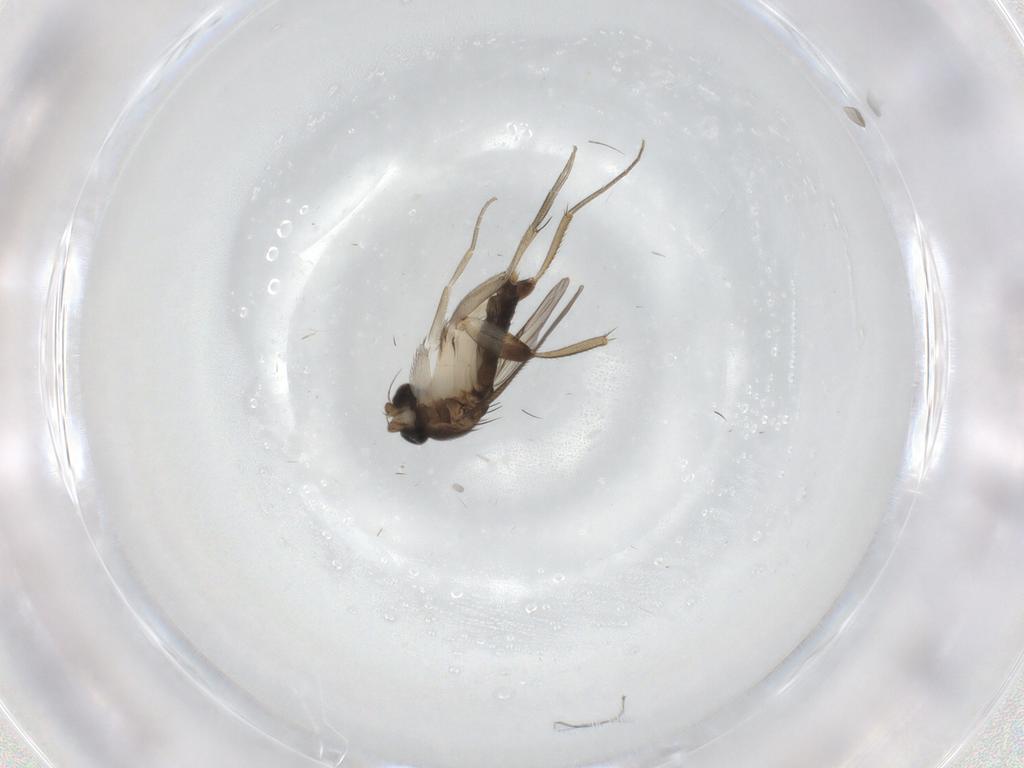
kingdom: Animalia
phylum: Arthropoda
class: Insecta
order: Diptera
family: Phoridae
